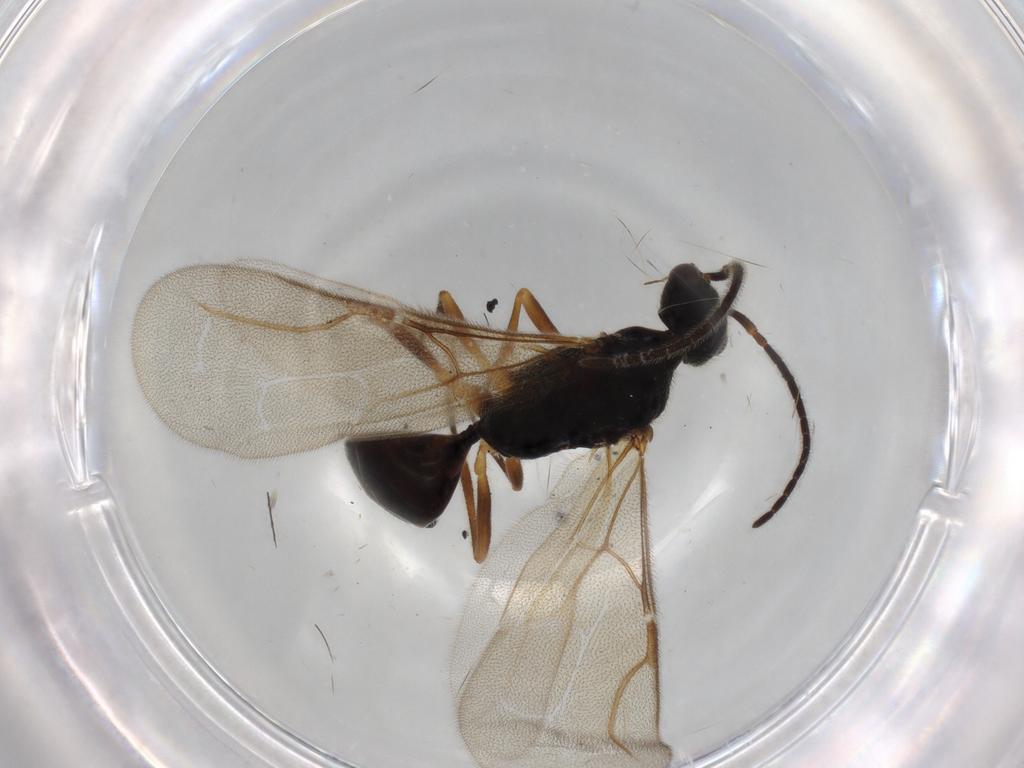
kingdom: Animalia
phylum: Arthropoda
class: Insecta
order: Hymenoptera
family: Bethylidae
